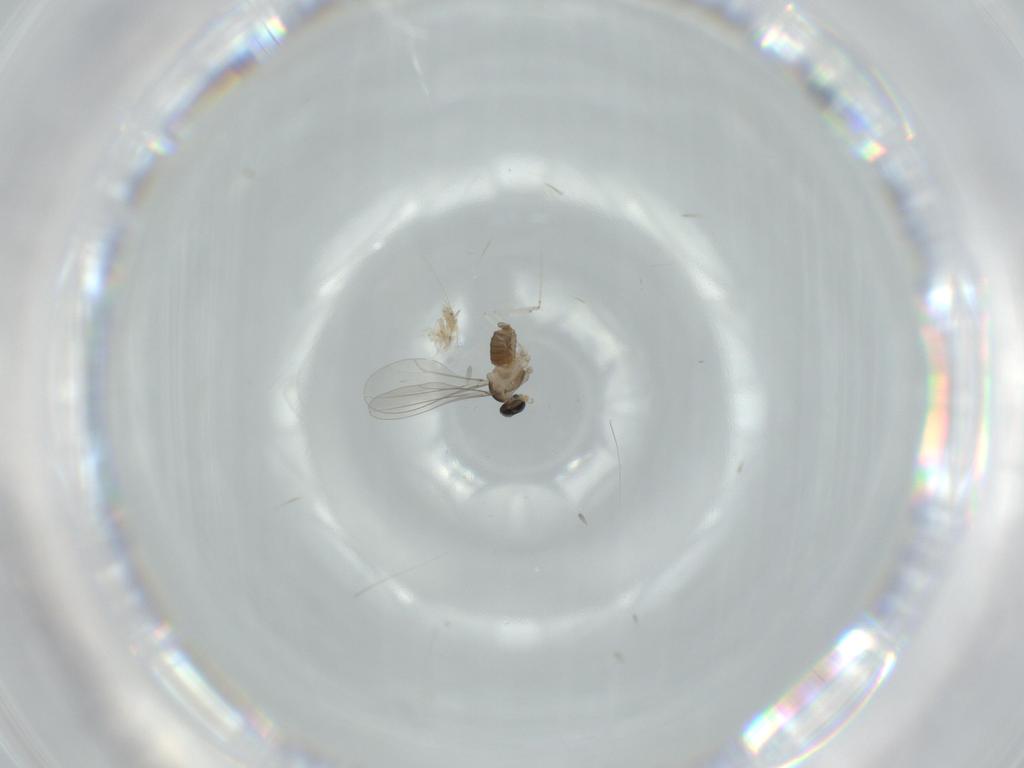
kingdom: Animalia
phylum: Arthropoda
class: Insecta
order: Diptera
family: Cecidomyiidae
